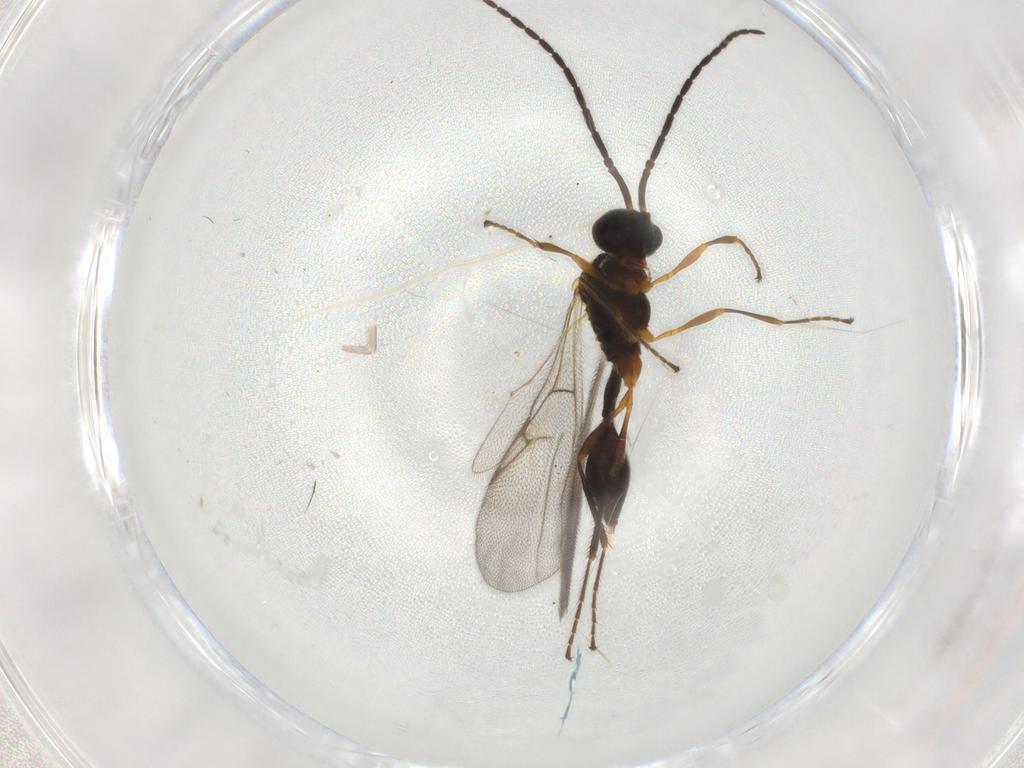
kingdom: Animalia
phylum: Arthropoda
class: Insecta
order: Hymenoptera
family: Diapriidae
